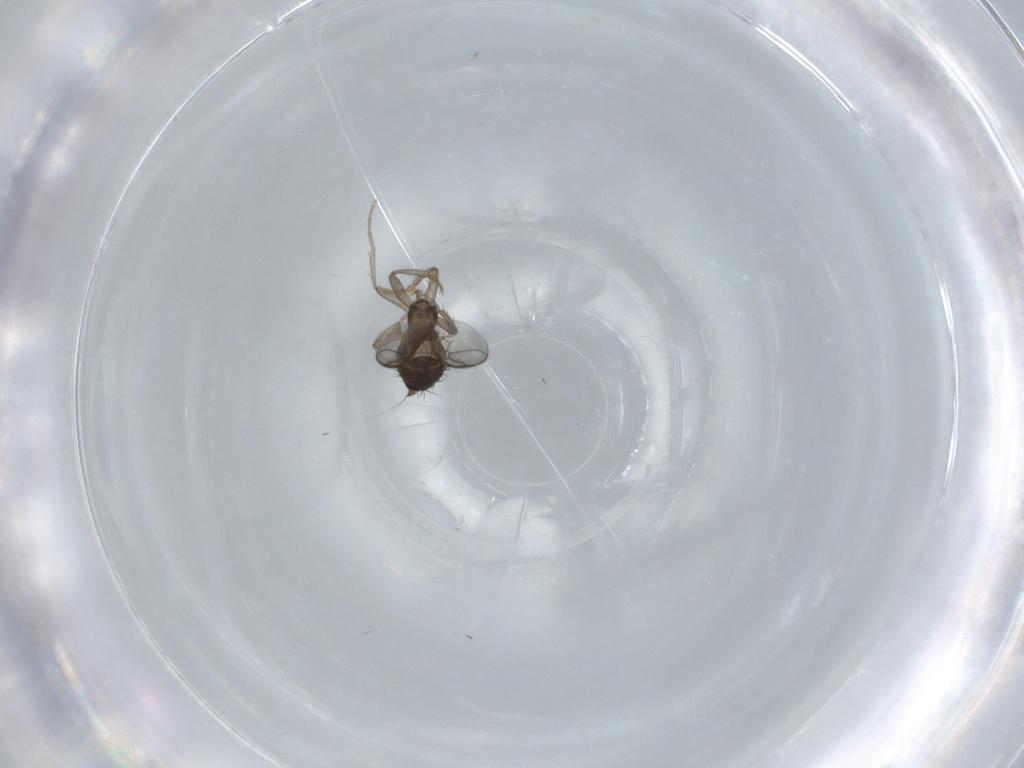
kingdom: Animalia
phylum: Arthropoda
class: Insecta
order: Diptera
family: Sphaeroceridae
